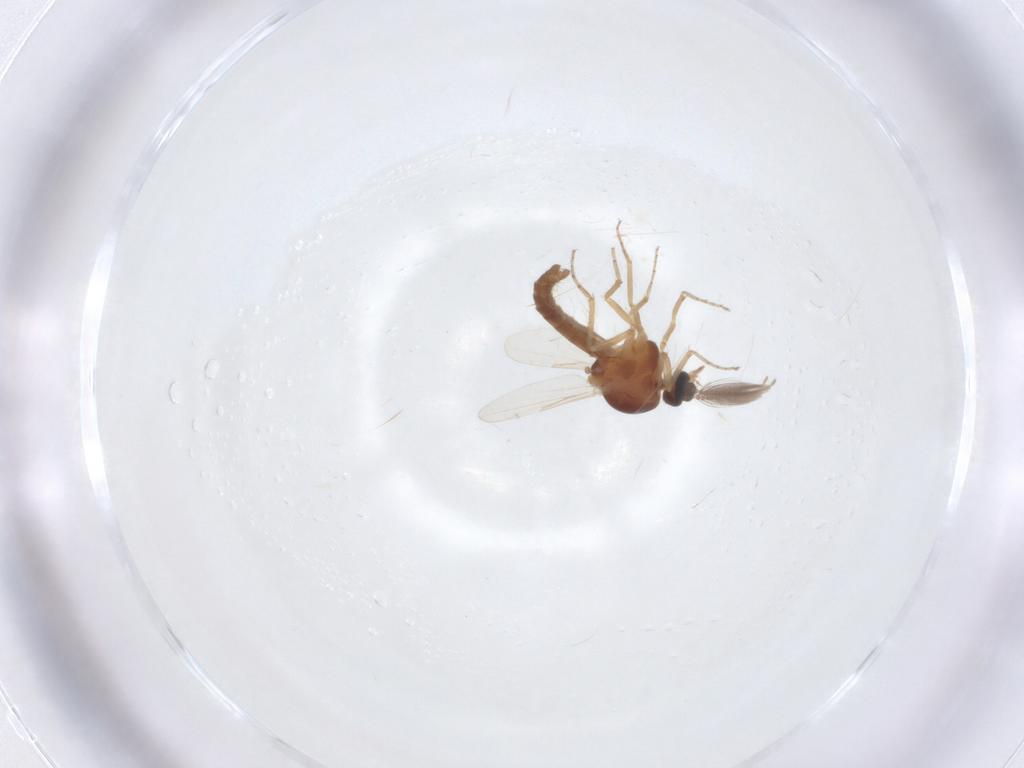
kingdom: Animalia
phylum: Arthropoda
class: Insecta
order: Diptera
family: Ceratopogonidae
